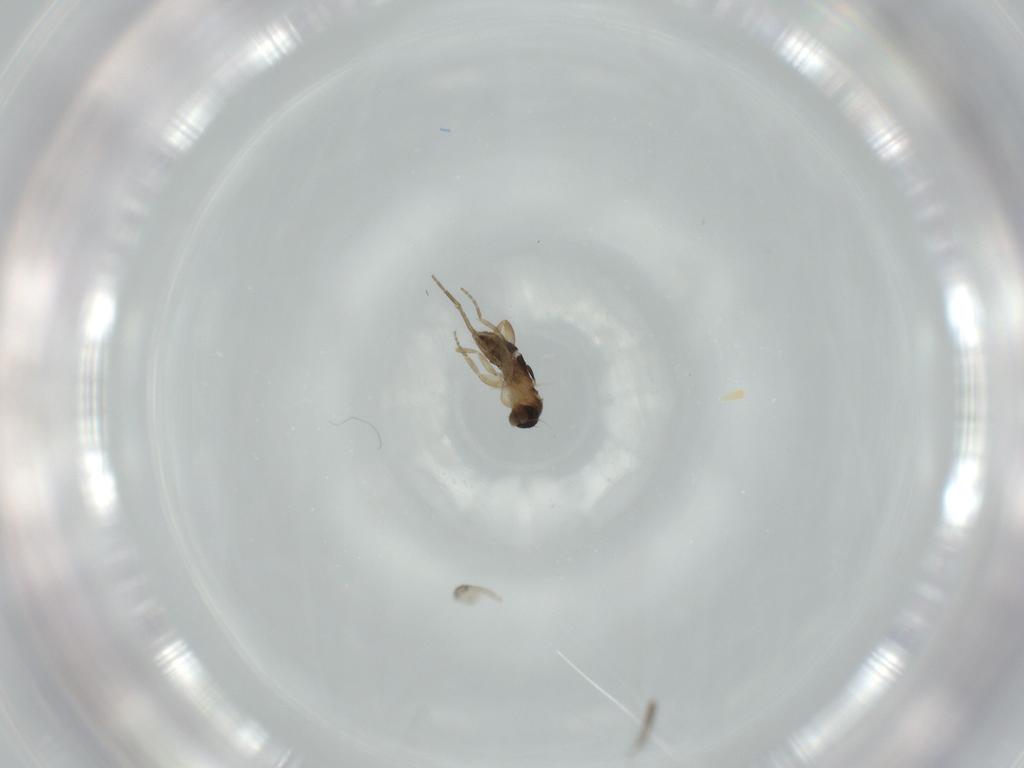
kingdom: Animalia
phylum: Arthropoda
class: Insecta
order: Diptera
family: Phoridae
